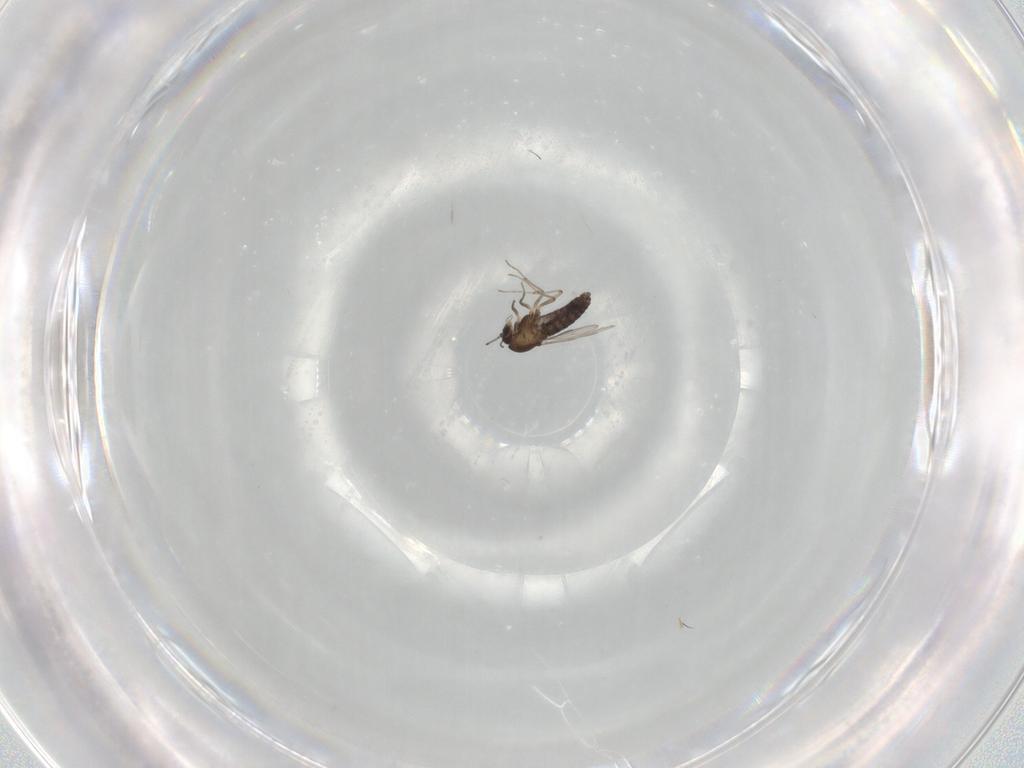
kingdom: Animalia
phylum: Arthropoda
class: Insecta
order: Diptera
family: Chironomidae
